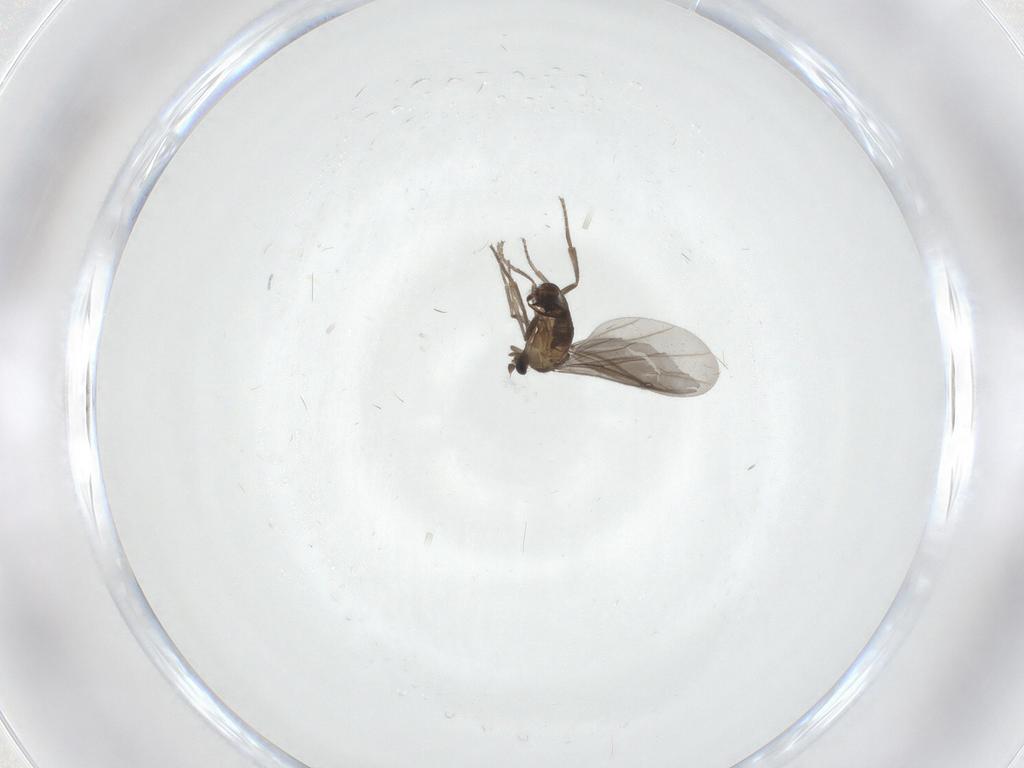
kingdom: Animalia
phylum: Arthropoda
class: Insecta
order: Diptera
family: Phoridae
